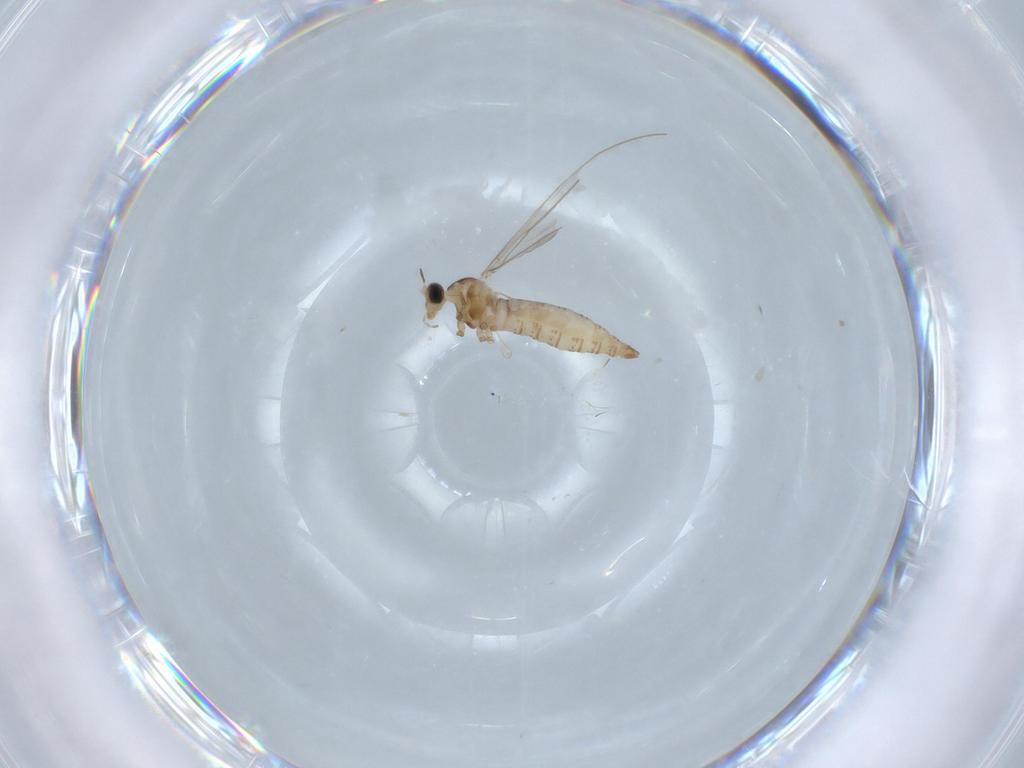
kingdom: Animalia
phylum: Arthropoda
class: Insecta
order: Diptera
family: Cecidomyiidae
